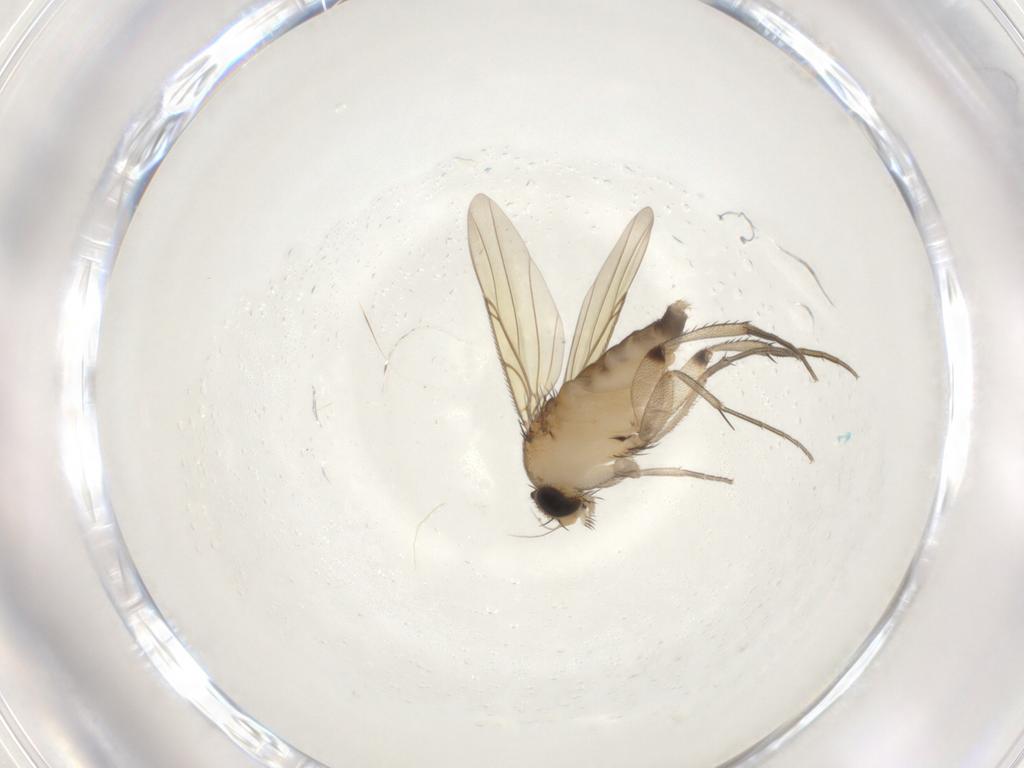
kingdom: Animalia
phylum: Arthropoda
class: Insecta
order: Diptera
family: Phoridae
